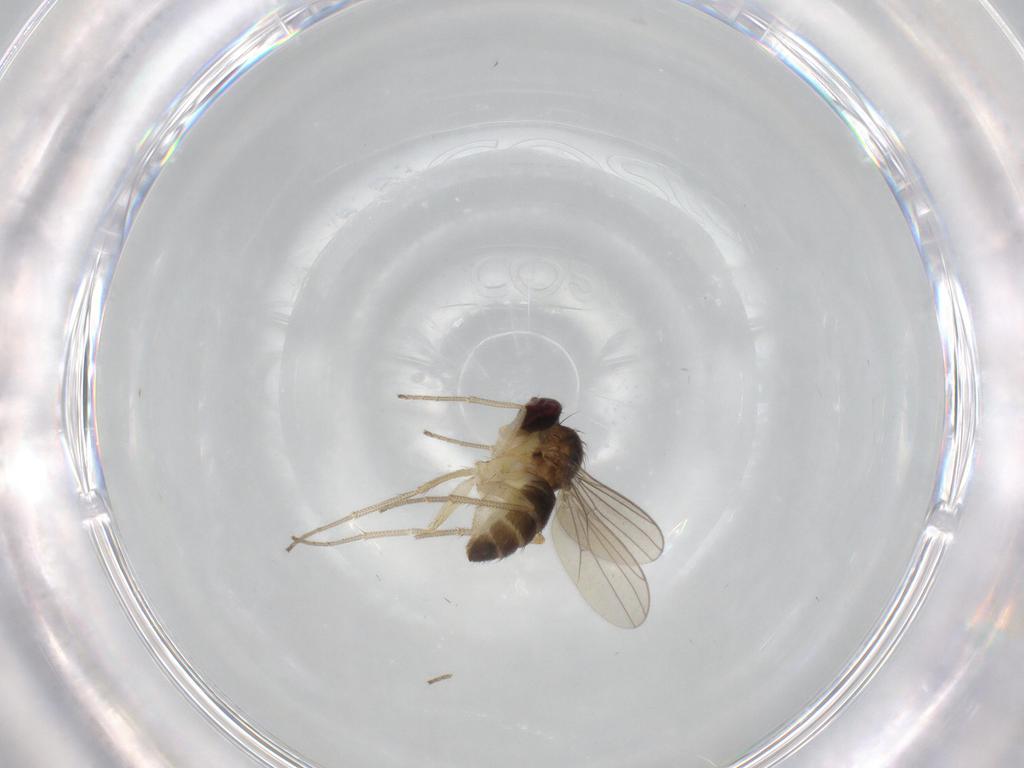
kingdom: Animalia
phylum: Arthropoda
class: Insecta
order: Diptera
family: Dolichopodidae
